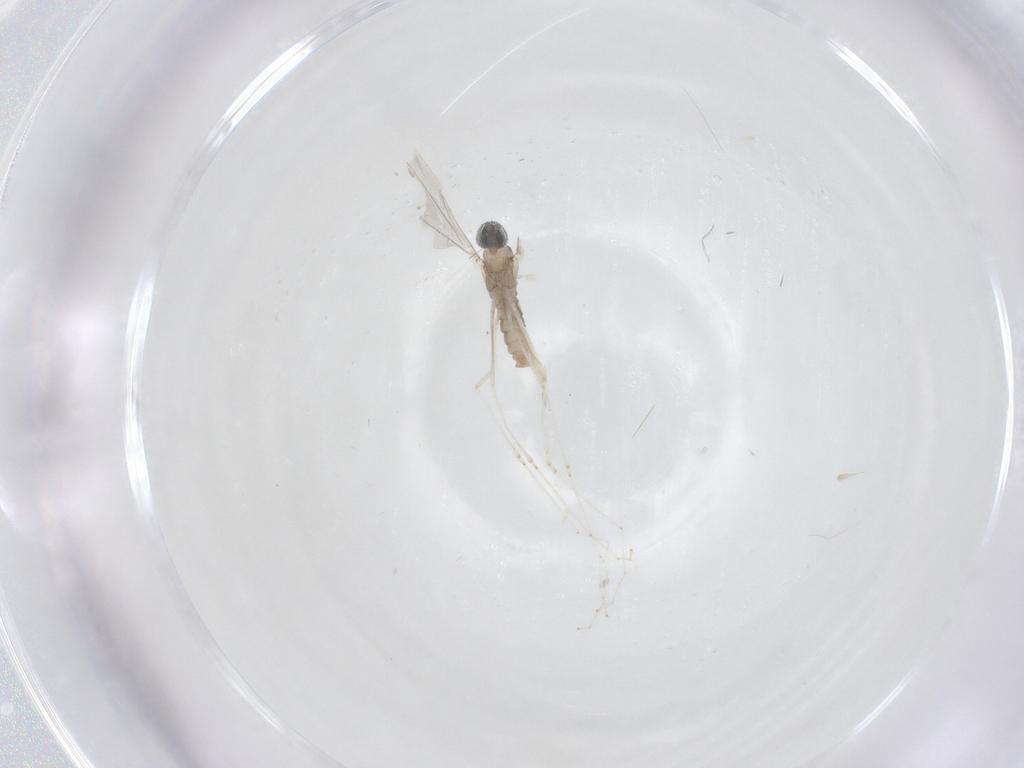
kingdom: Animalia
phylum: Arthropoda
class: Insecta
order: Diptera
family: Cecidomyiidae
